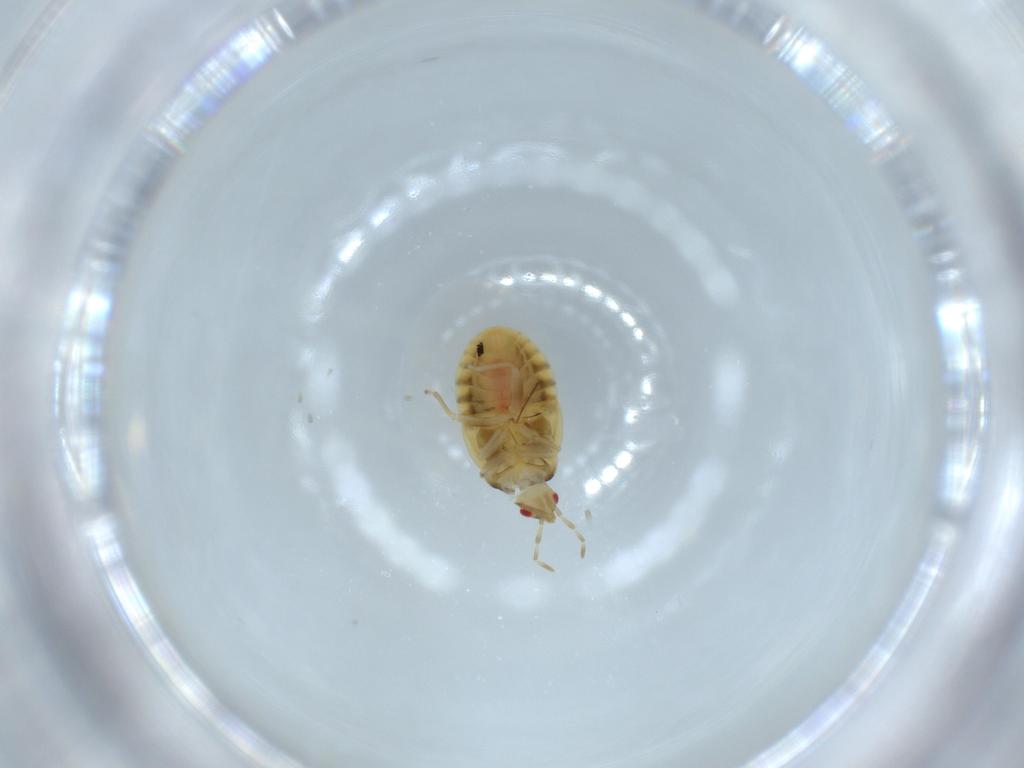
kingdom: Animalia
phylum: Arthropoda
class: Insecta
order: Hemiptera
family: Anthocoridae
